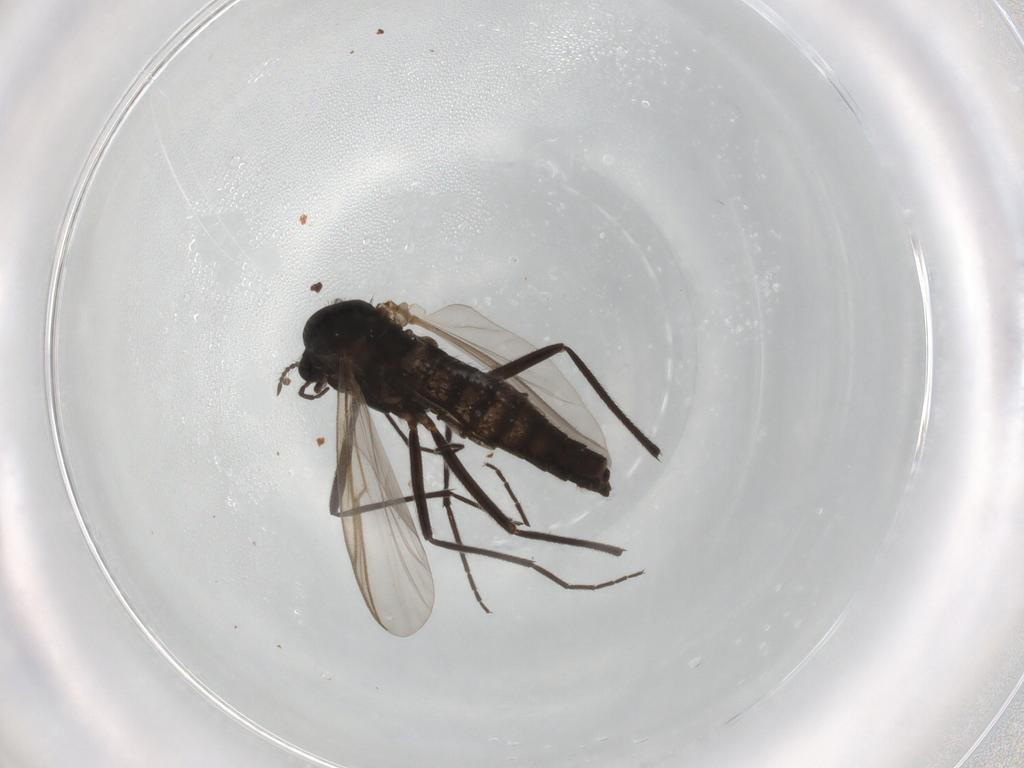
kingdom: Animalia
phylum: Arthropoda
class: Insecta
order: Diptera
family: Chironomidae
